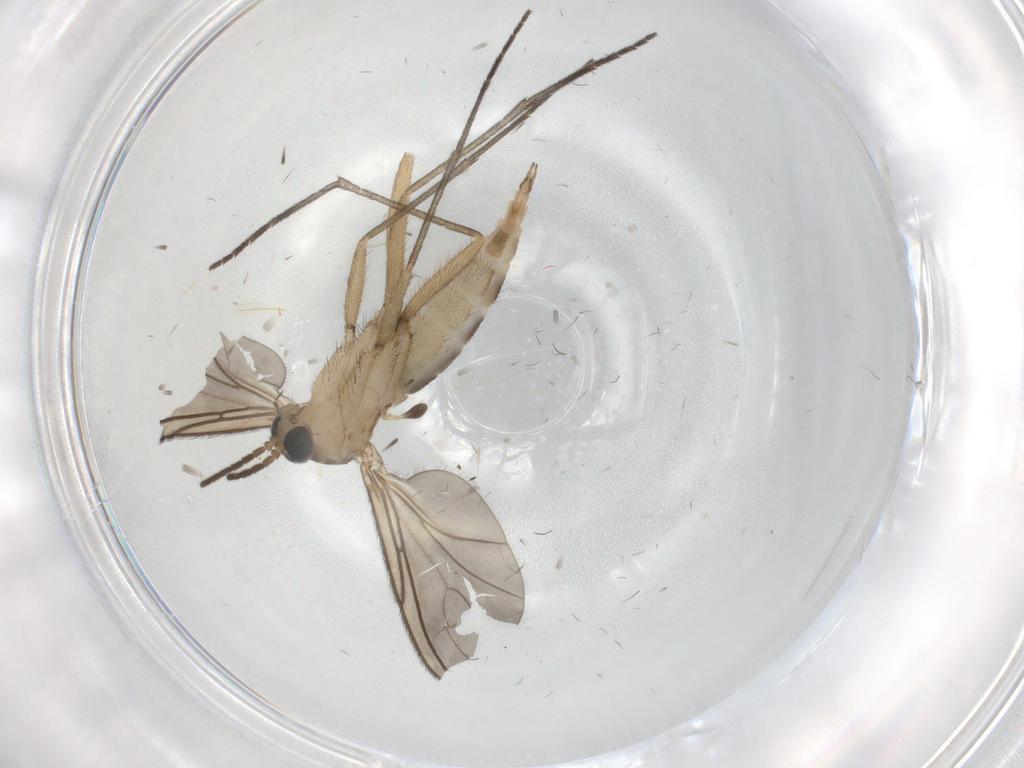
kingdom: Animalia
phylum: Arthropoda
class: Insecta
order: Diptera
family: Sciaridae
